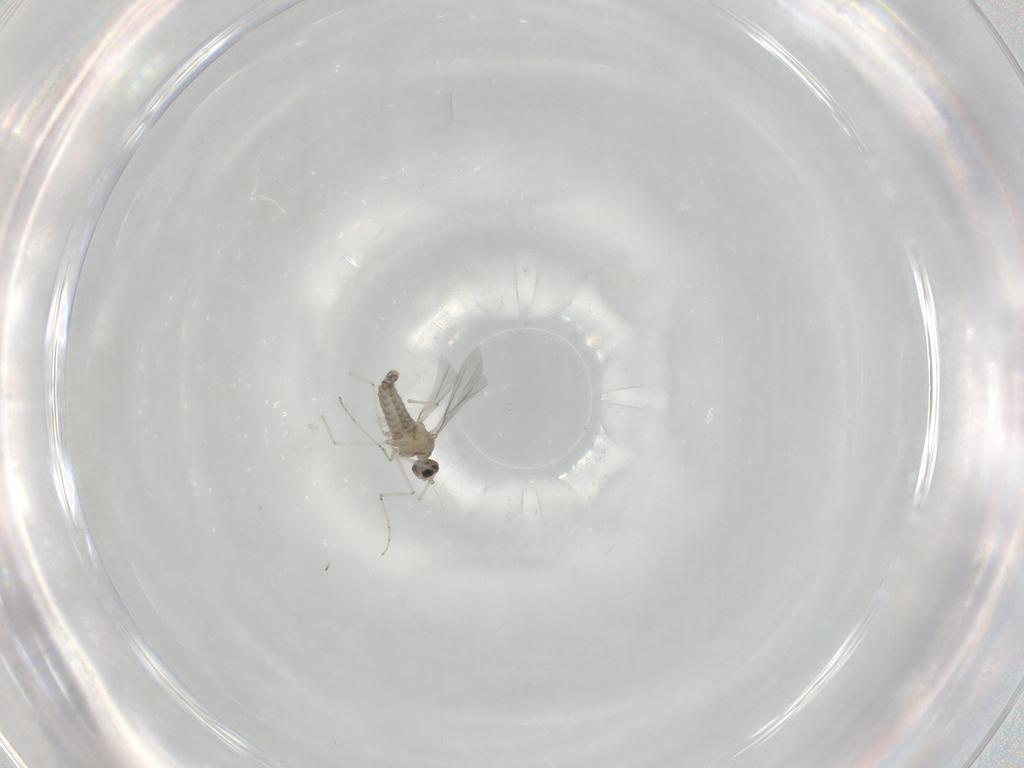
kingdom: Animalia
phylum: Arthropoda
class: Insecta
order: Diptera
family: Cecidomyiidae
